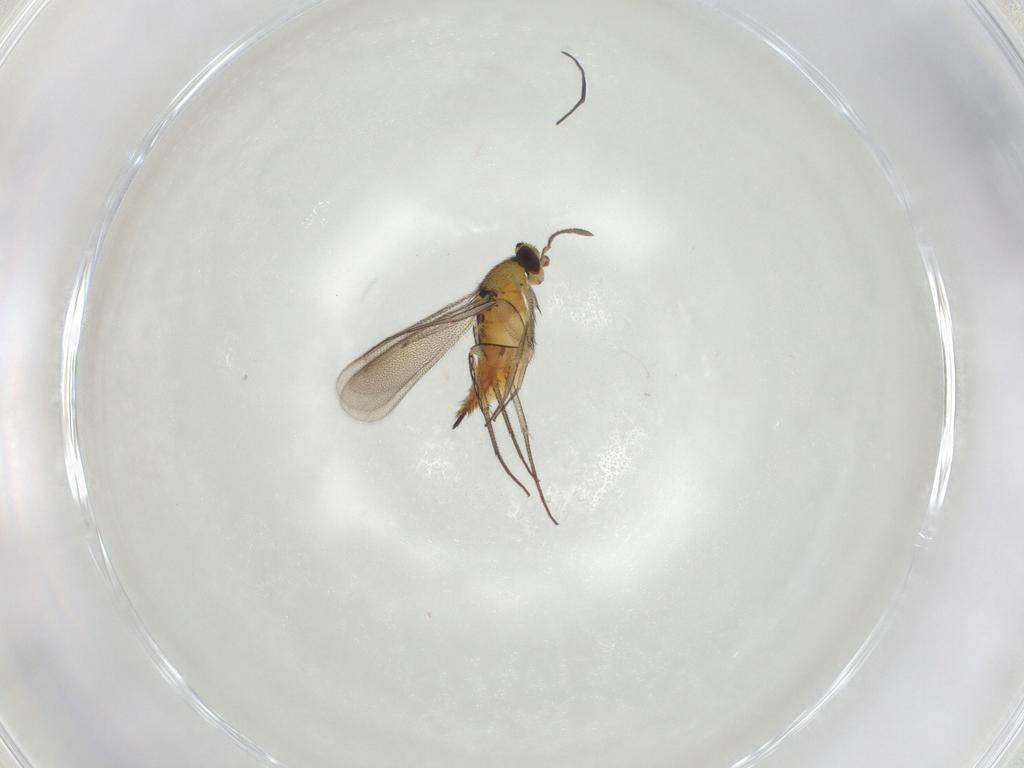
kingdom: Animalia
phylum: Arthropoda
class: Insecta
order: Hymenoptera
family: Eulophidae
